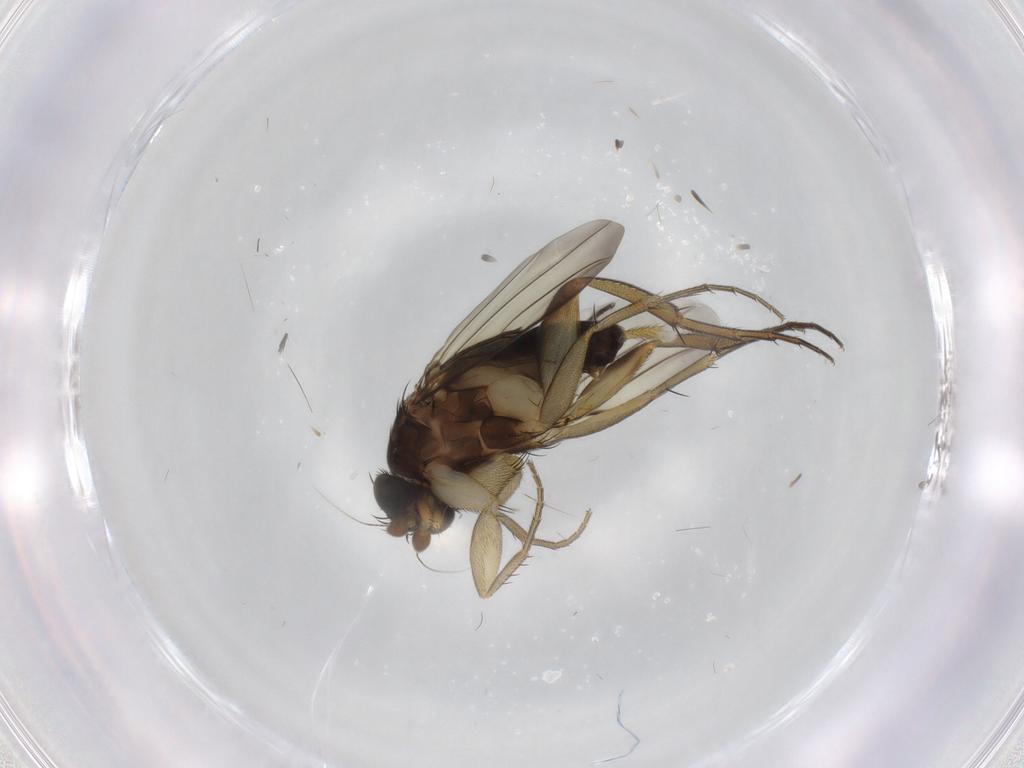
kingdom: Animalia
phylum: Arthropoda
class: Insecta
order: Diptera
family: Phoridae
